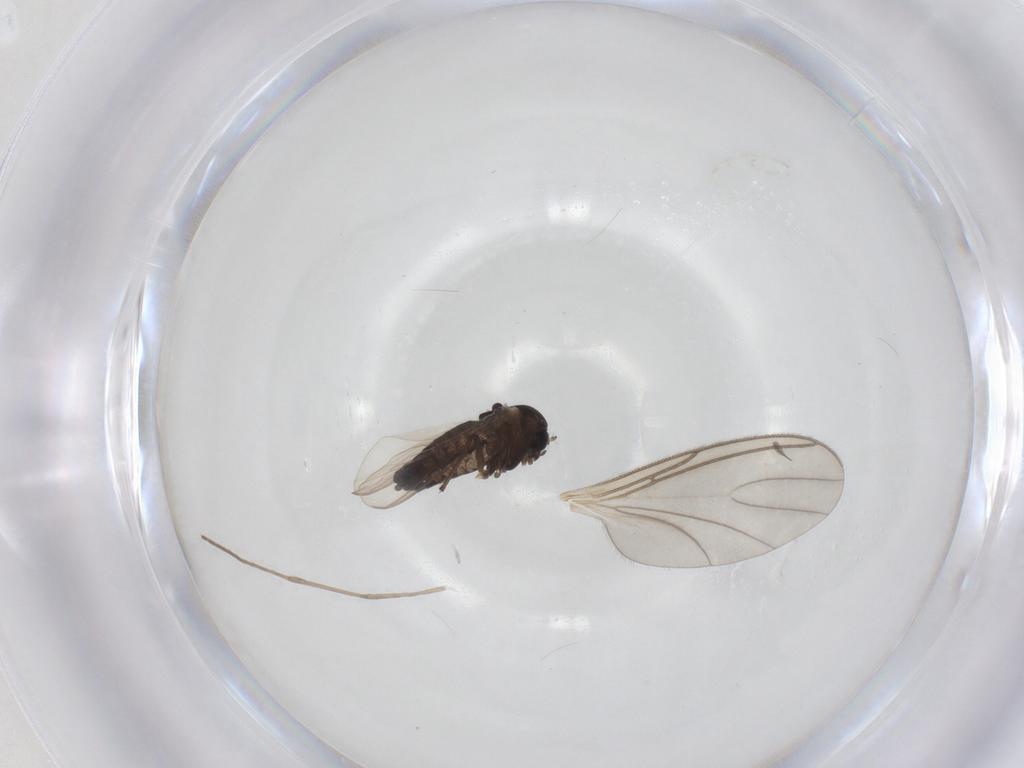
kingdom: Animalia
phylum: Arthropoda
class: Insecta
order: Diptera
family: Cecidomyiidae
